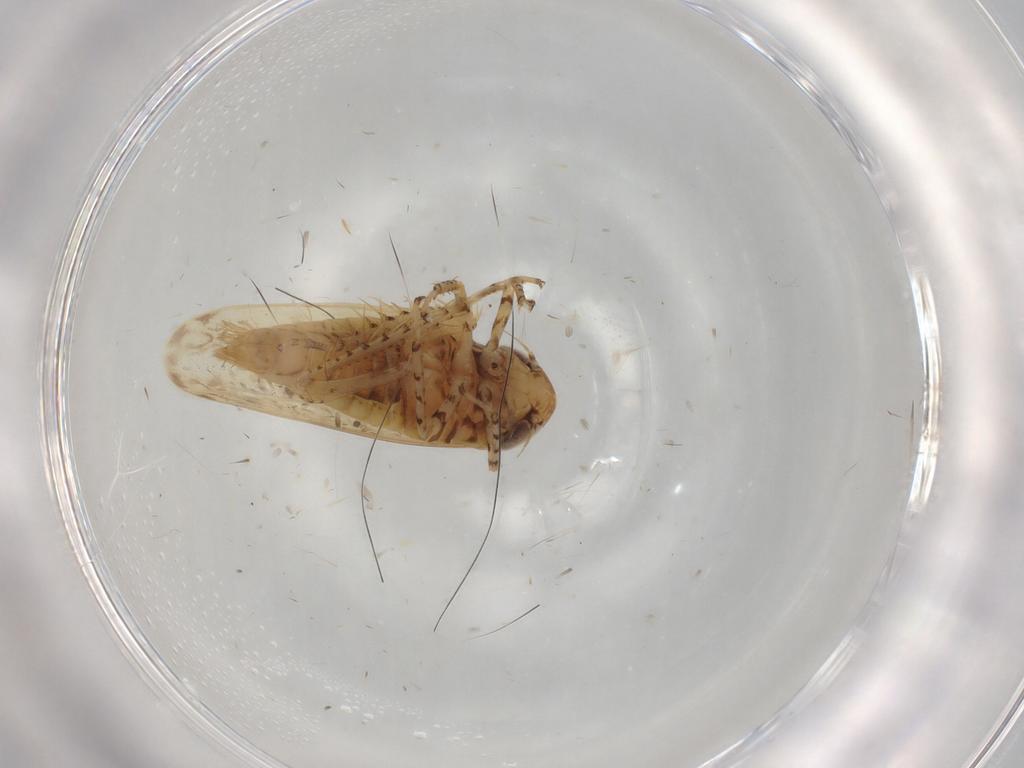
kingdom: Animalia
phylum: Arthropoda
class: Insecta
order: Hemiptera
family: Cicadellidae
